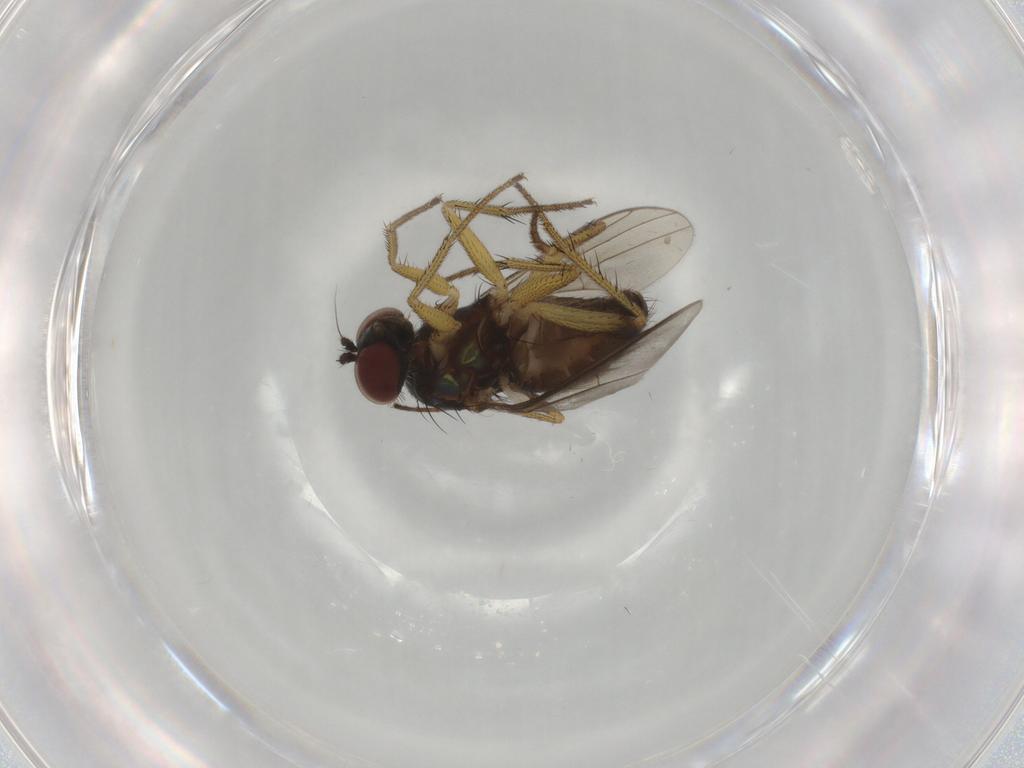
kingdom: Animalia
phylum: Arthropoda
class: Insecta
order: Diptera
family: Dolichopodidae
